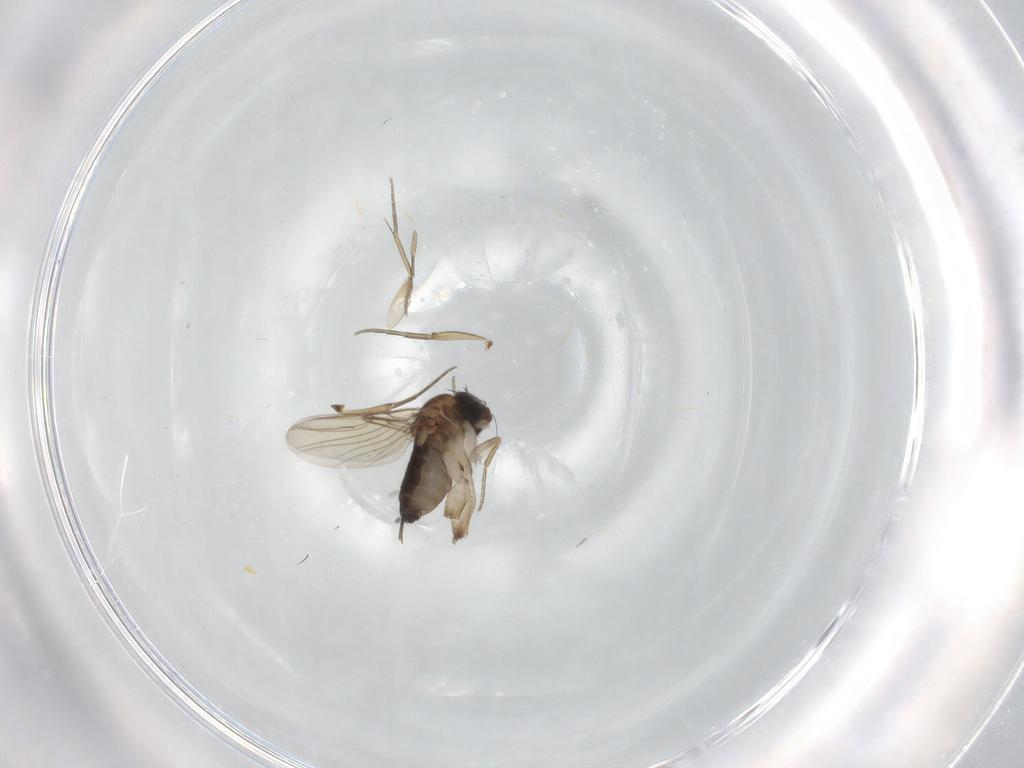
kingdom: Animalia
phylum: Arthropoda
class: Insecta
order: Diptera
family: Phoridae
